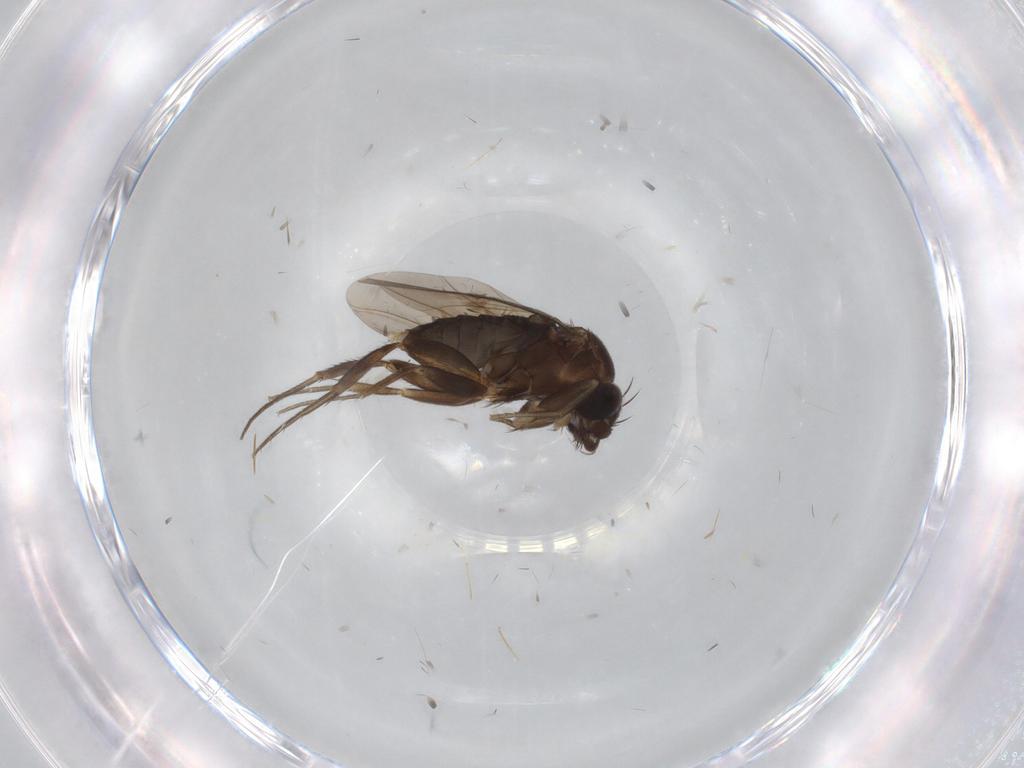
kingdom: Animalia
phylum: Arthropoda
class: Insecta
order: Diptera
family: Phoridae
